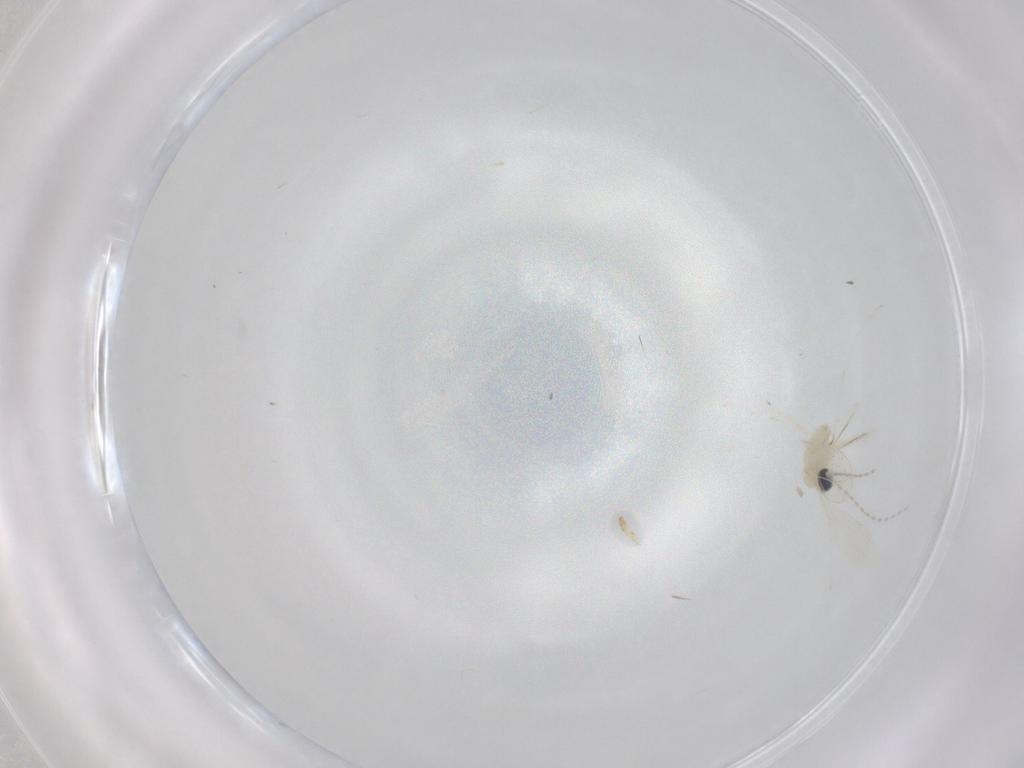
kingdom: Animalia
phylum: Arthropoda
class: Insecta
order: Diptera
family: Cecidomyiidae
